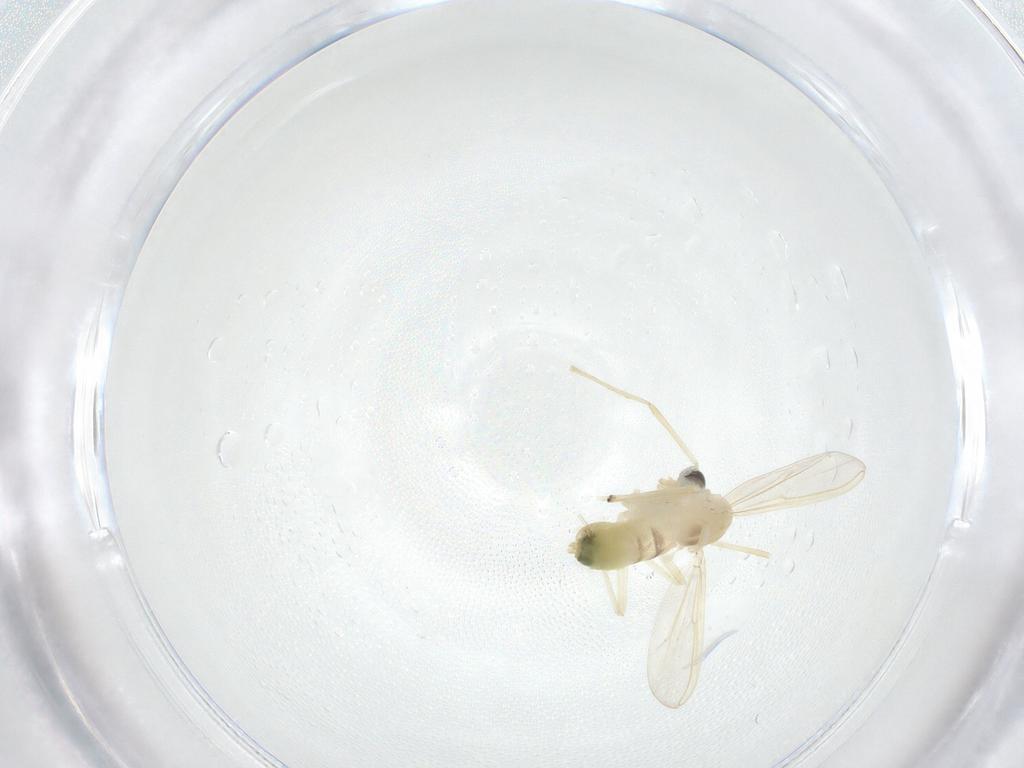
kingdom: Animalia
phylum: Arthropoda
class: Insecta
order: Diptera
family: Chironomidae
